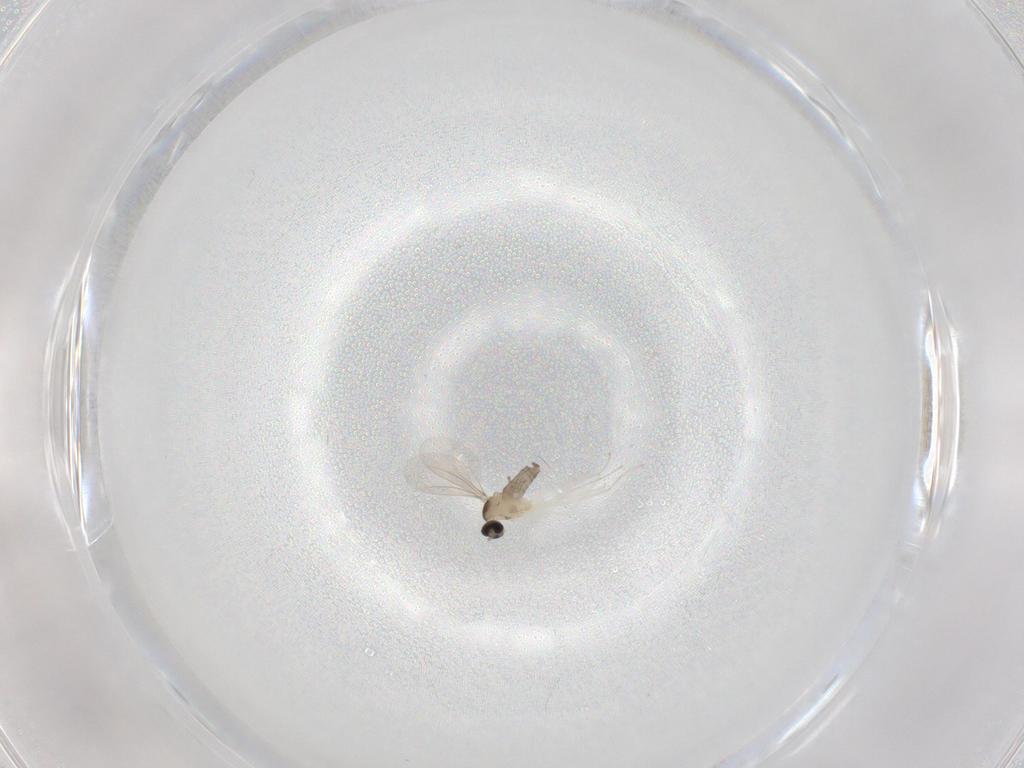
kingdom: Animalia
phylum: Arthropoda
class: Insecta
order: Diptera
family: Cecidomyiidae
